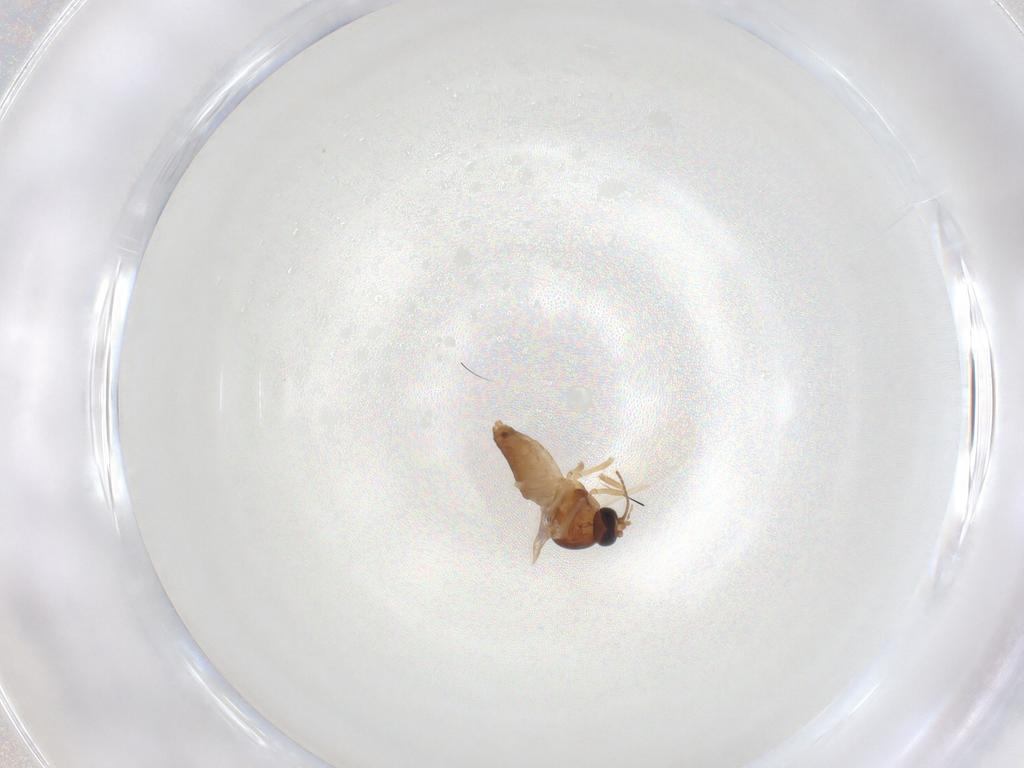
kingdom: Animalia
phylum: Arthropoda
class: Insecta
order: Diptera
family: Ceratopogonidae
